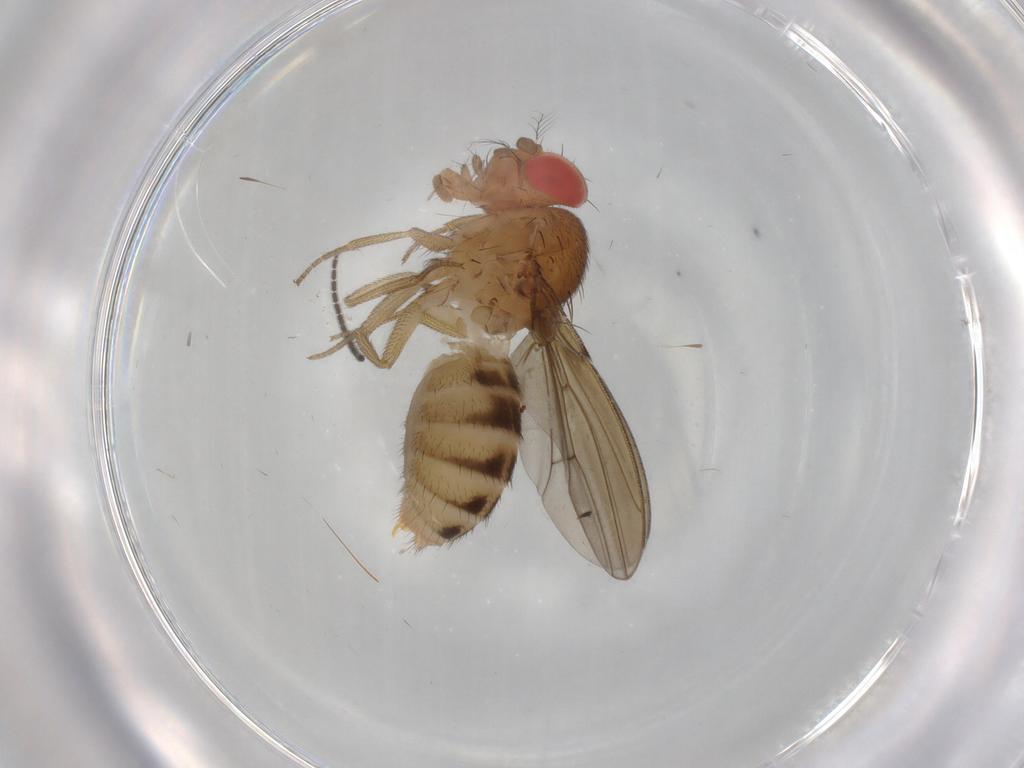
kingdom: Animalia
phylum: Arthropoda
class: Insecta
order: Diptera
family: Drosophilidae
